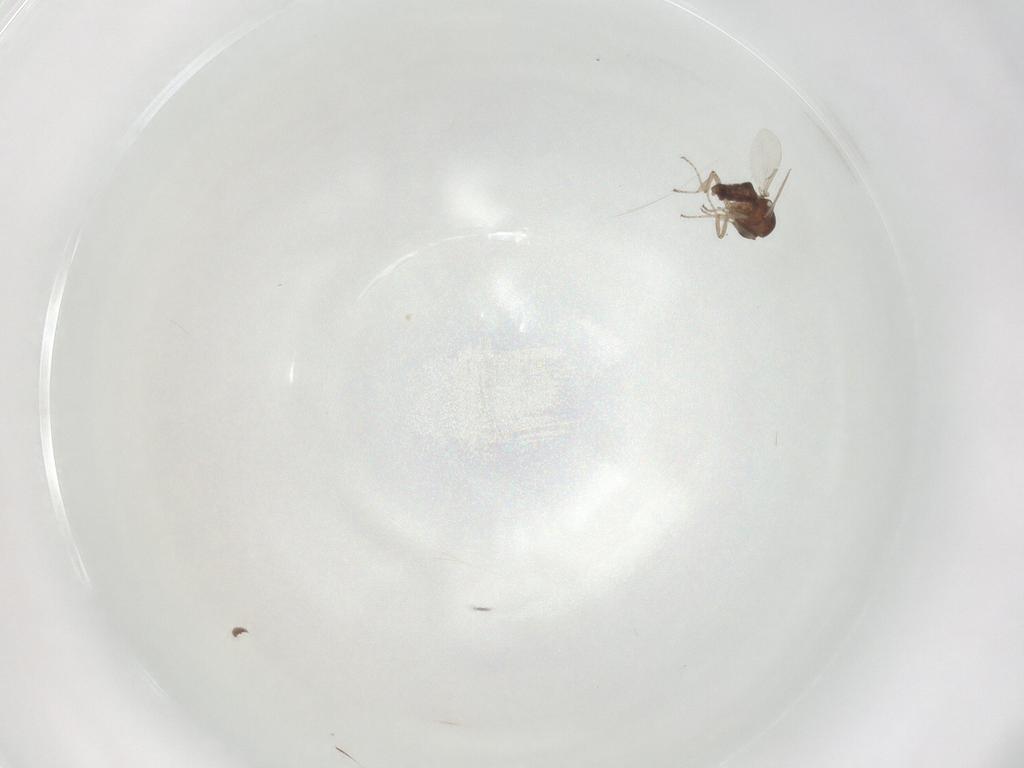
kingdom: Animalia
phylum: Arthropoda
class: Insecta
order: Diptera
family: Ceratopogonidae
